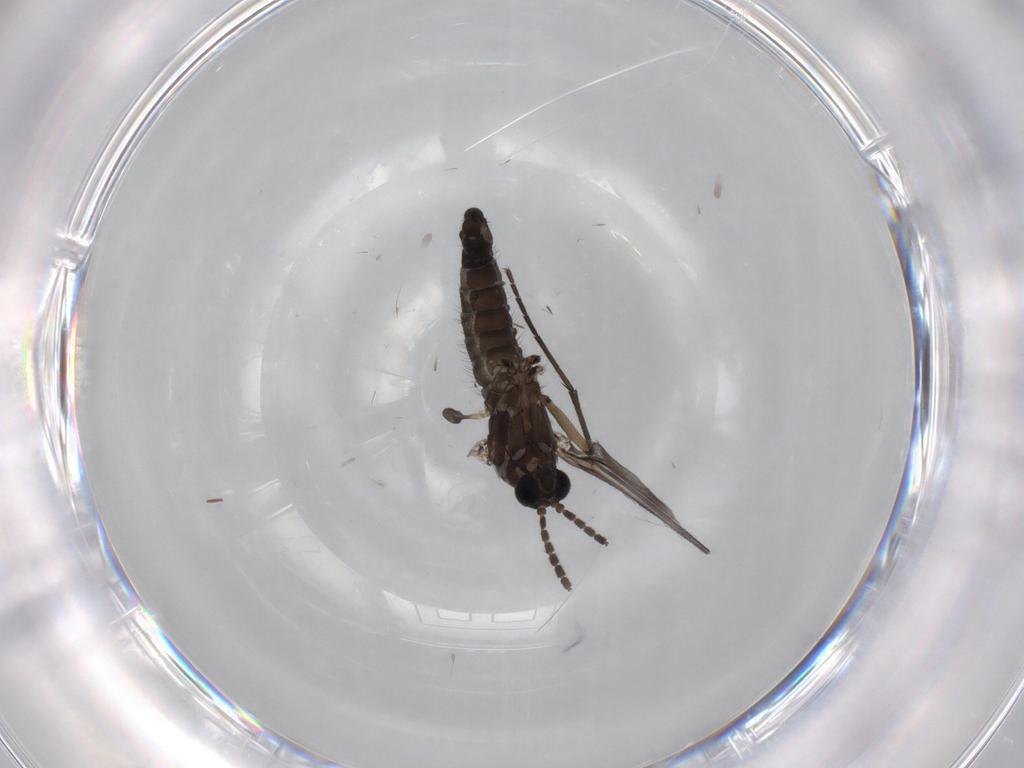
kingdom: Animalia
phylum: Arthropoda
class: Insecta
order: Diptera
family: Sciaridae
